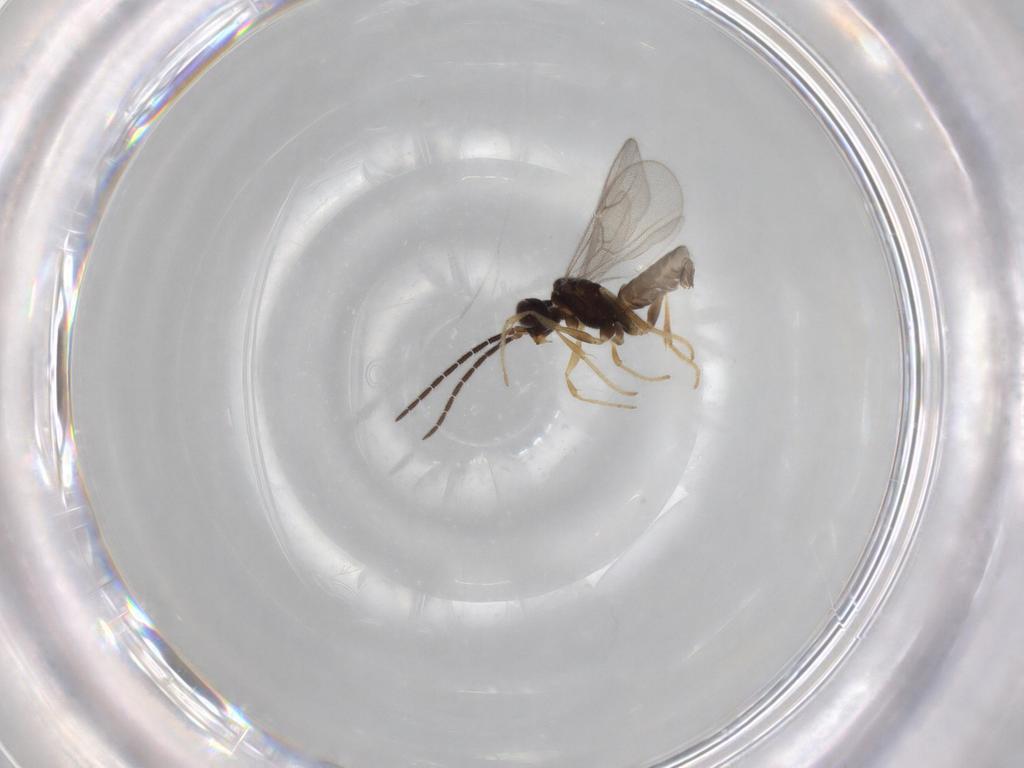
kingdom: Animalia
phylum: Arthropoda
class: Insecta
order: Hymenoptera
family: Dryinidae
